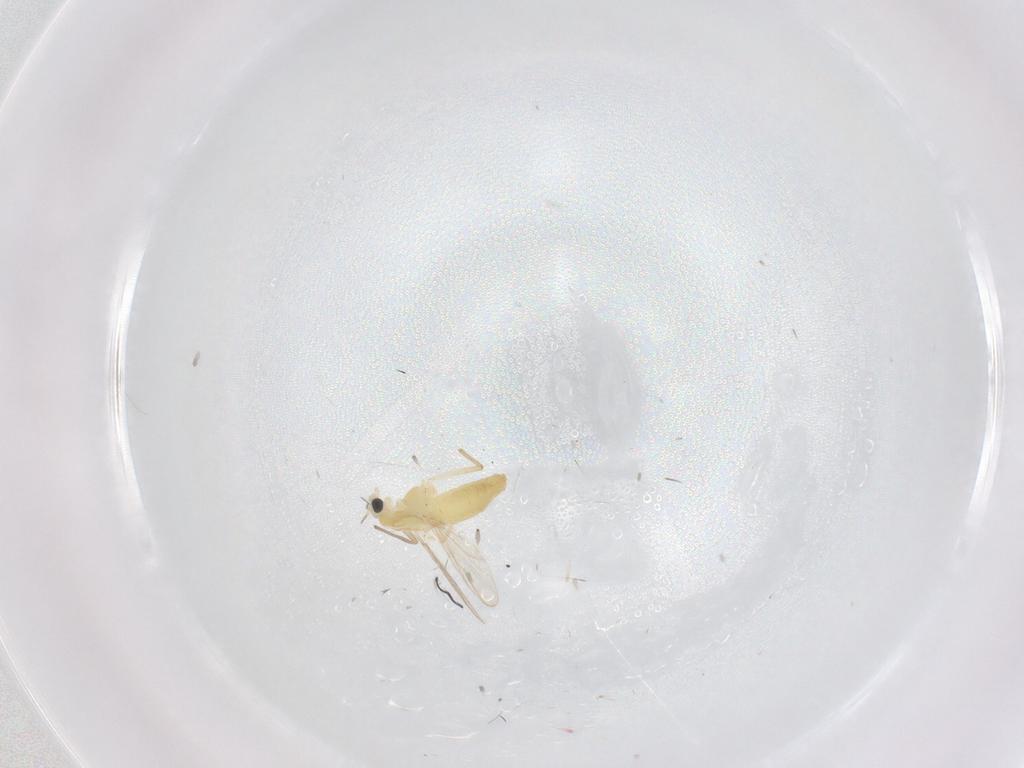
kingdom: Animalia
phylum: Arthropoda
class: Insecta
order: Diptera
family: Chironomidae
